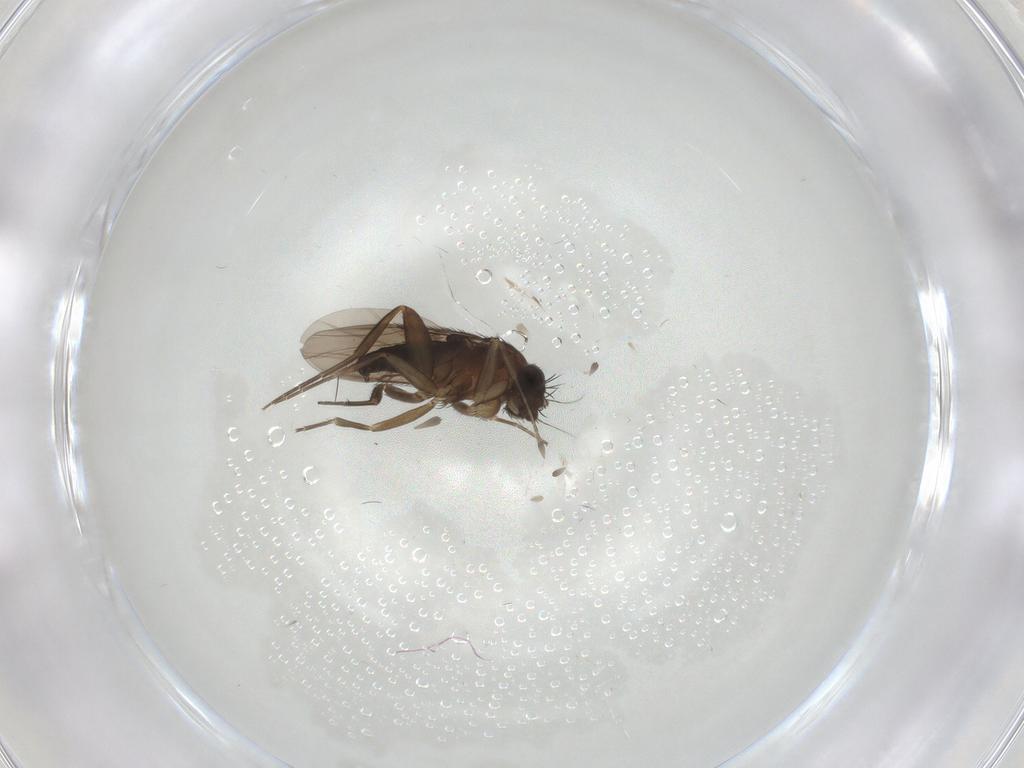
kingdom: Animalia
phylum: Arthropoda
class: Insecta
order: Diptera
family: Phoridae
